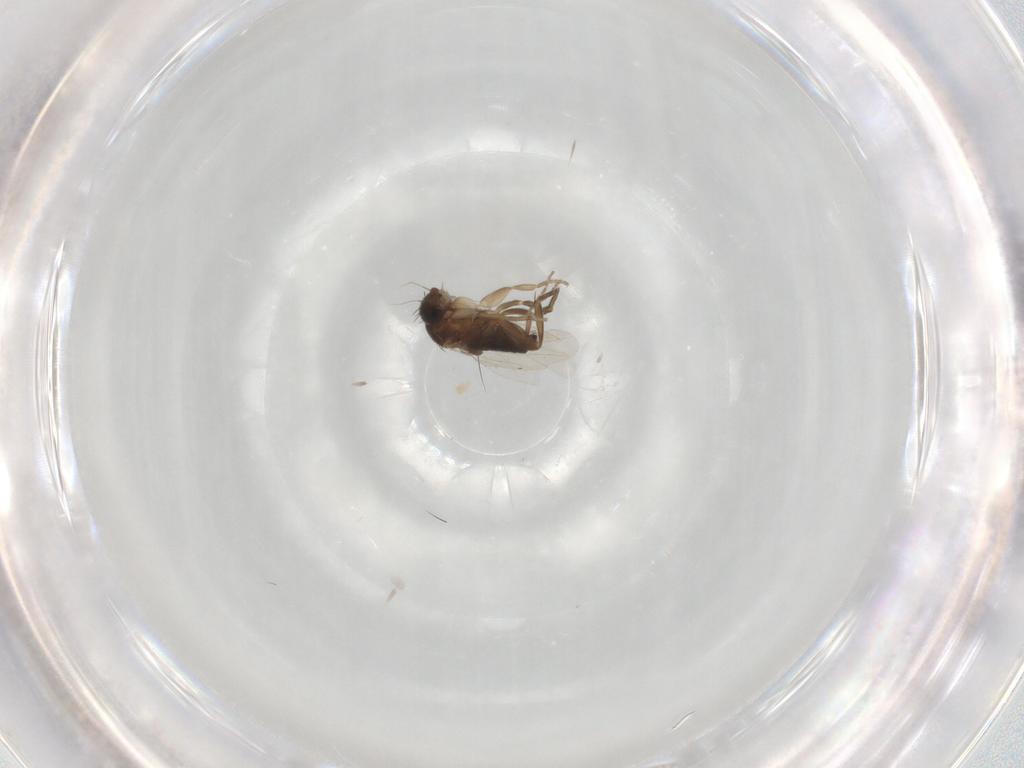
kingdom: Animalia
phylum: Arthropoda
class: Insecta
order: Diptera
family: Phoridae
